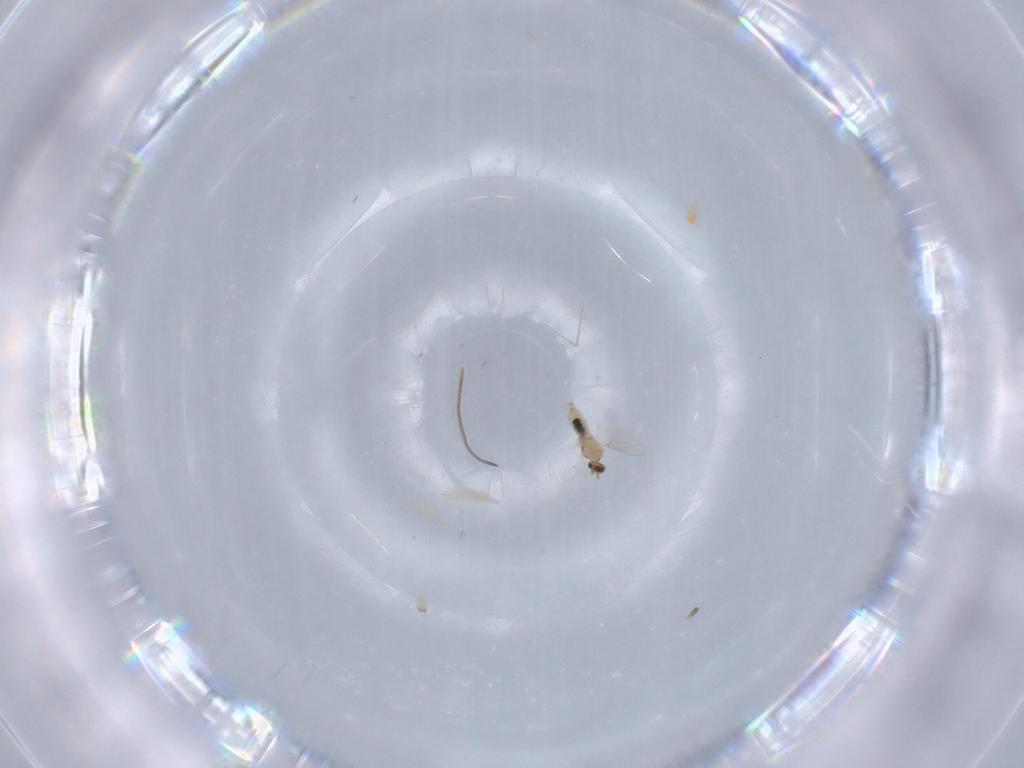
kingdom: Animalia
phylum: Arthropoda
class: Insecta
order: Diptera
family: Cecidomyiidae
